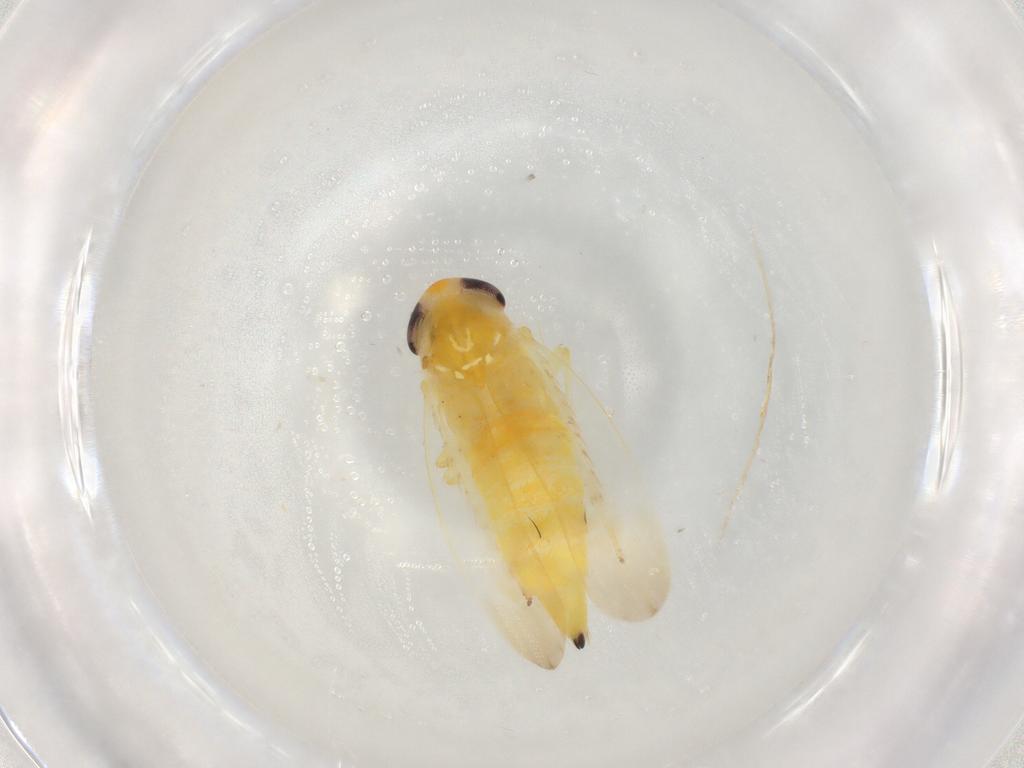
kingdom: Animalia
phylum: Arthropoda
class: Insecta
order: Hemiptera
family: Cicadellidae
